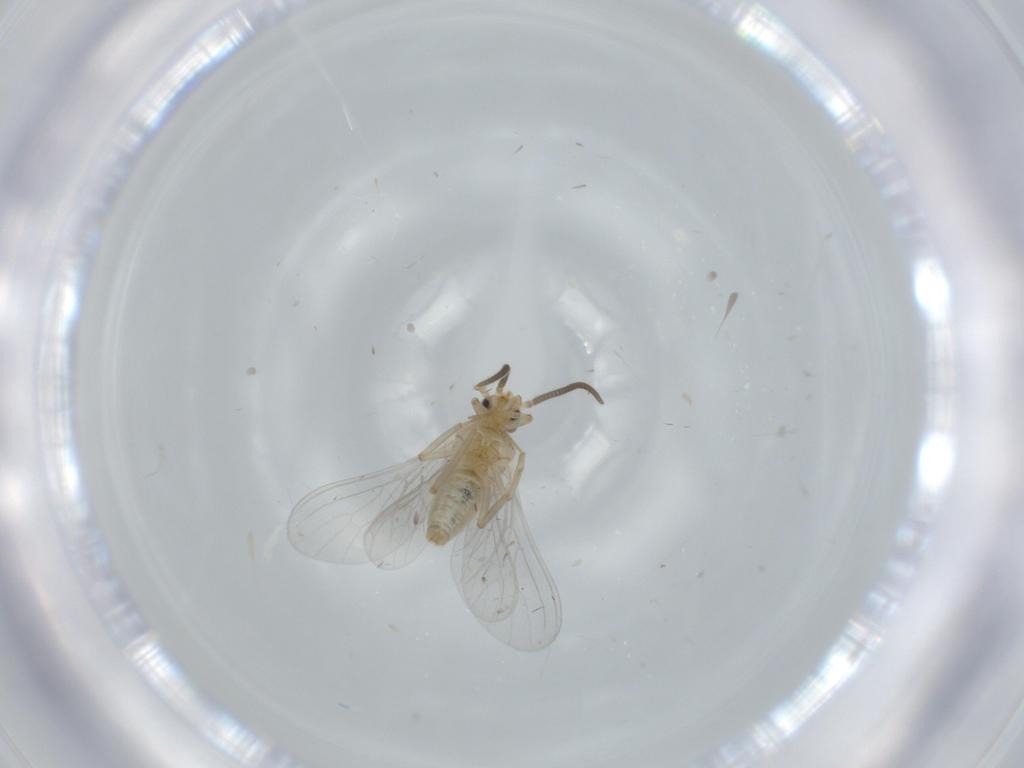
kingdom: Animalia
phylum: Arthropoda
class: Insecta
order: Neuroptera
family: Coniopterygidae
